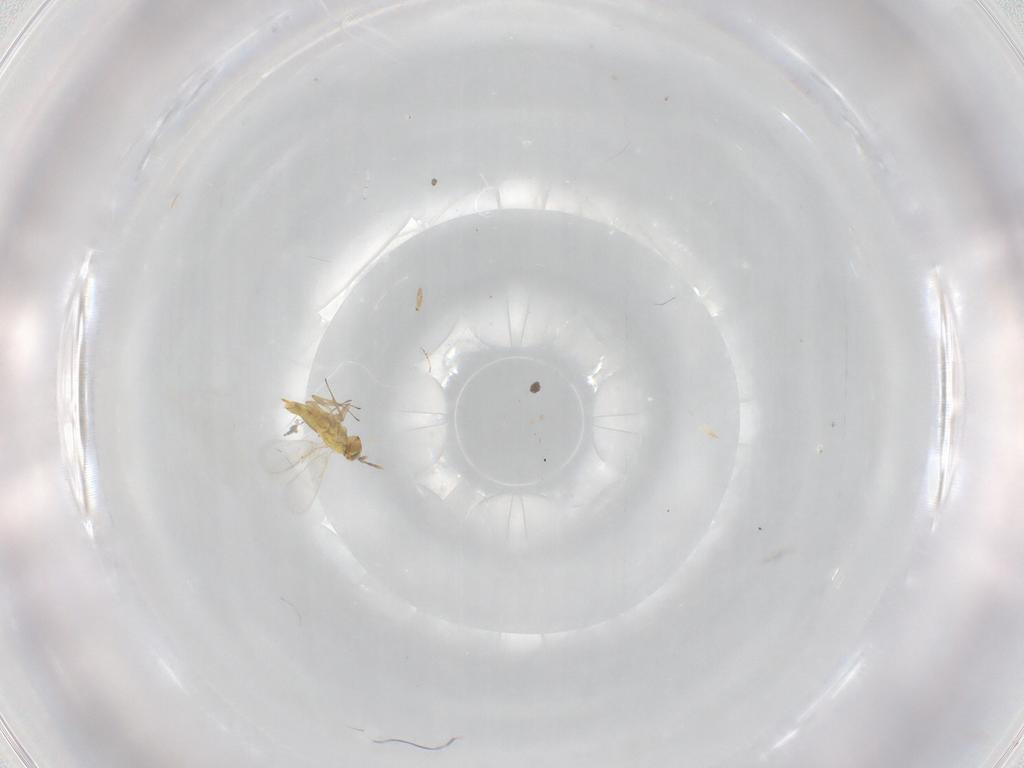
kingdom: Animalia
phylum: Arthropoda
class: Insecta
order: Hymenoptera
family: Aphelinidae
